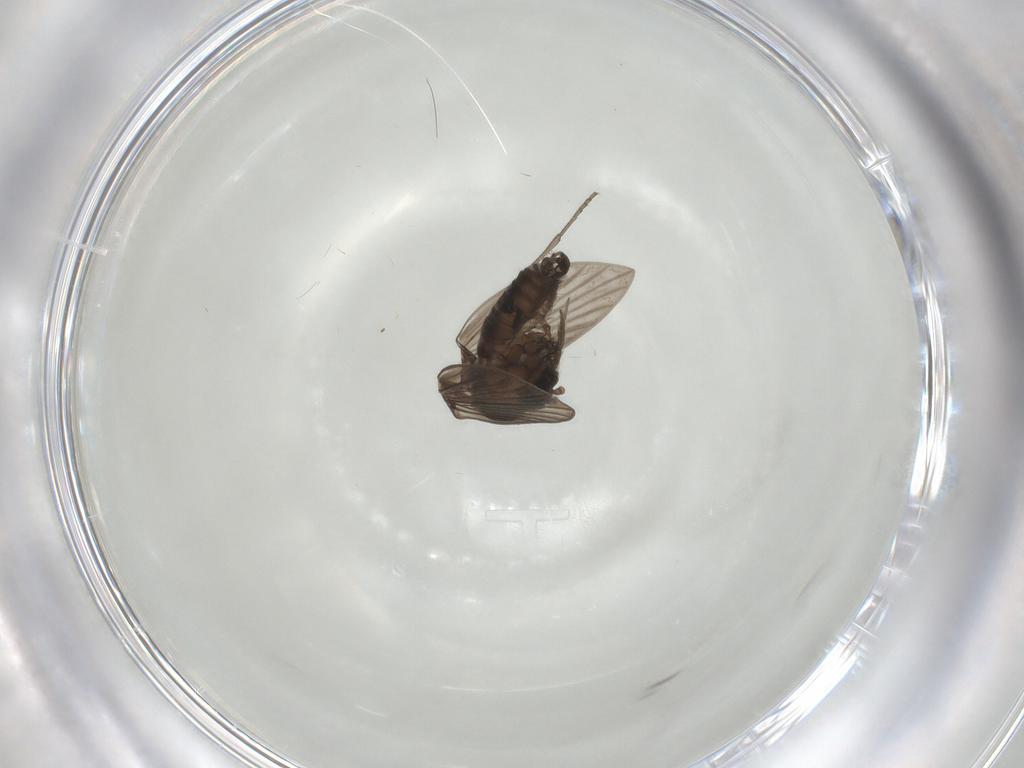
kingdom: Animalia
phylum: Arthropoda
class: Insecta
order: Diptera
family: Psychodidae
